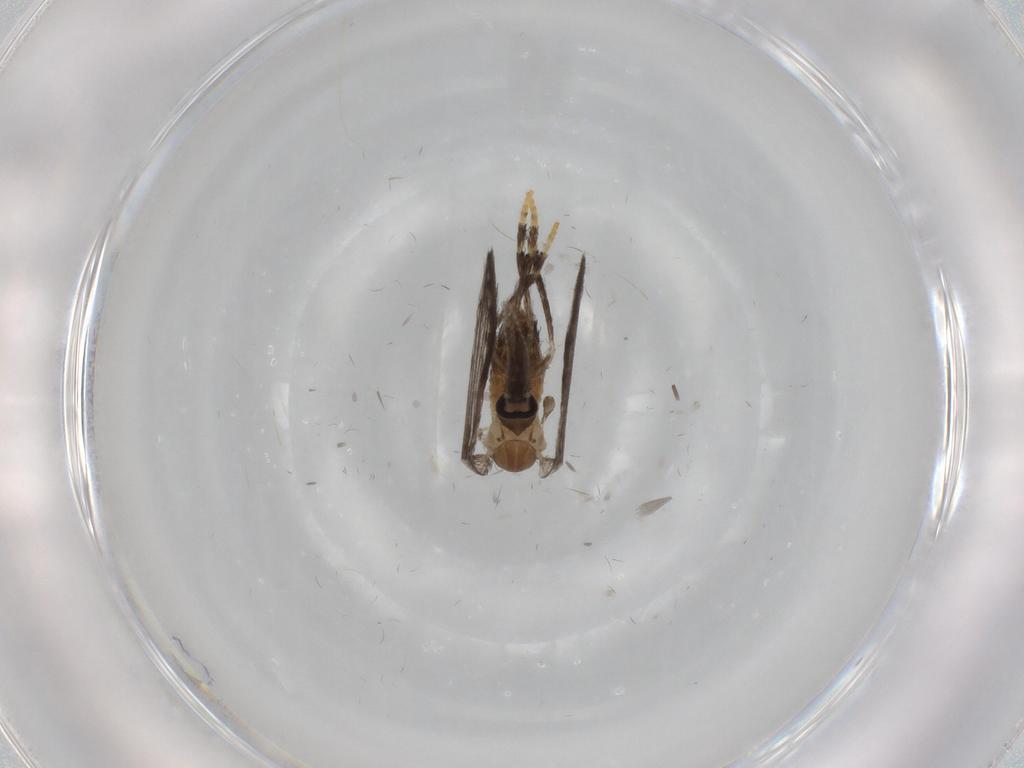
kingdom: Animalia
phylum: Arthropoda
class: Insecta
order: Diptera
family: Psychodidae
